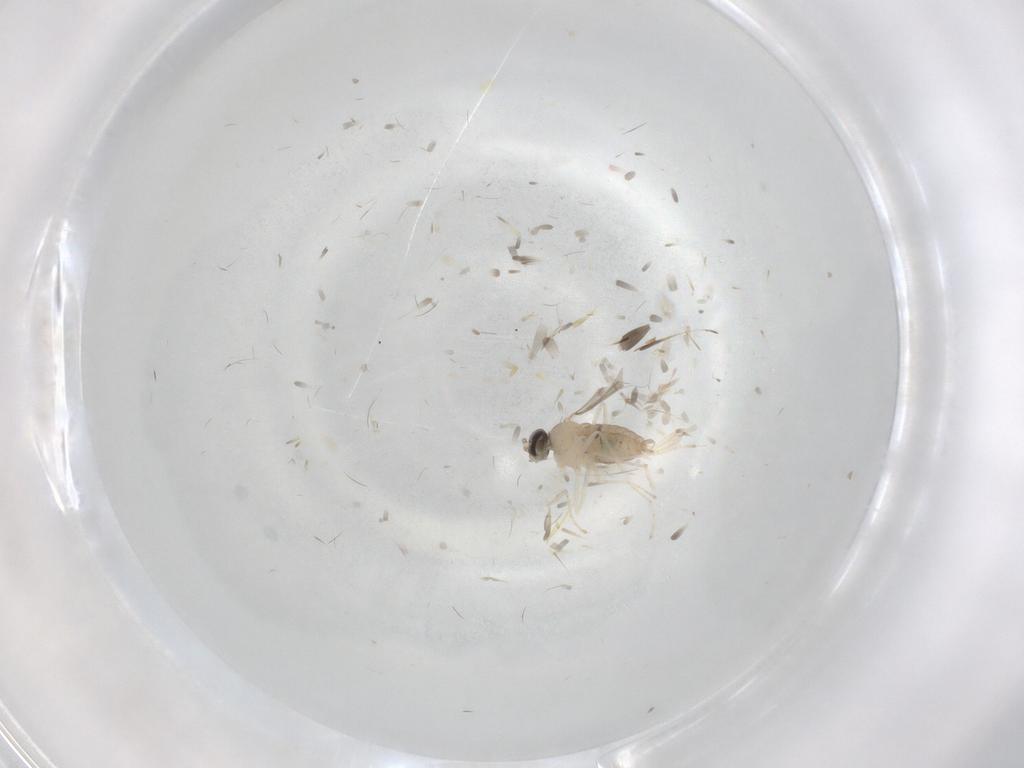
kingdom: Animalia
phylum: Arthropoda
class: Insecta
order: Diptera
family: Cecidomyiidae
